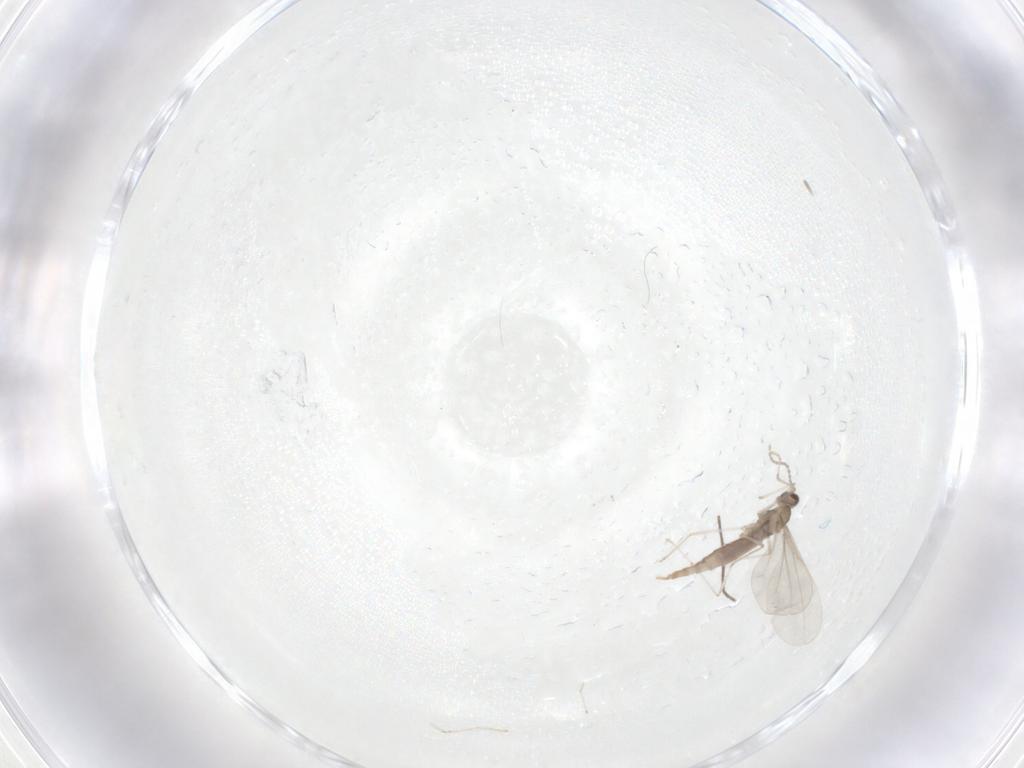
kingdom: Animalia
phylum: Arthropoda
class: Insecta
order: Diptera
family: Cecidomyiidae
